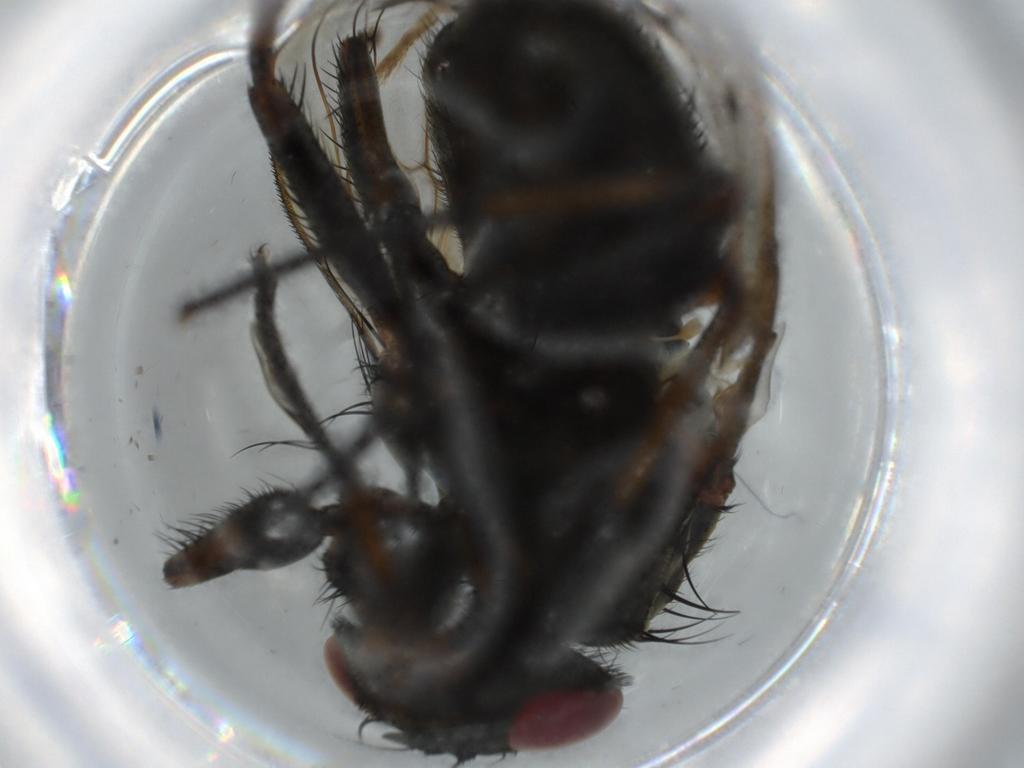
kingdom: Animalia
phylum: Arthropoda
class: Insecta
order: Diptera
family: Muscidae
